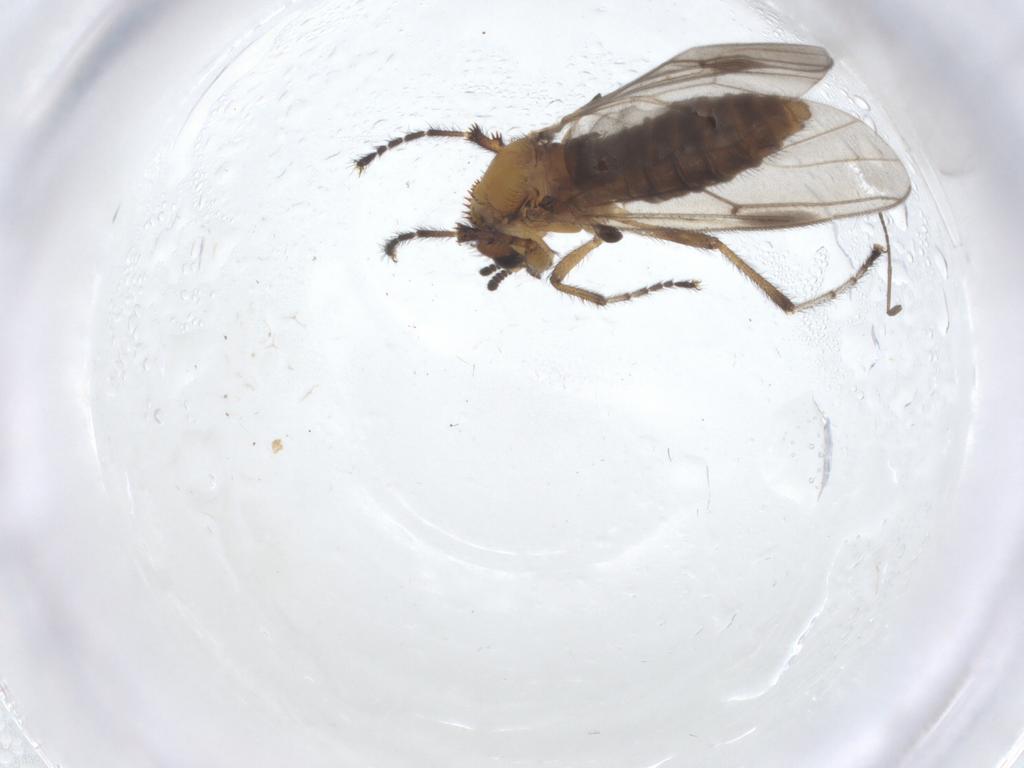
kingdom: Animalia
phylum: Arthropoda
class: Insecta
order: Diptera
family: Bibionidae
